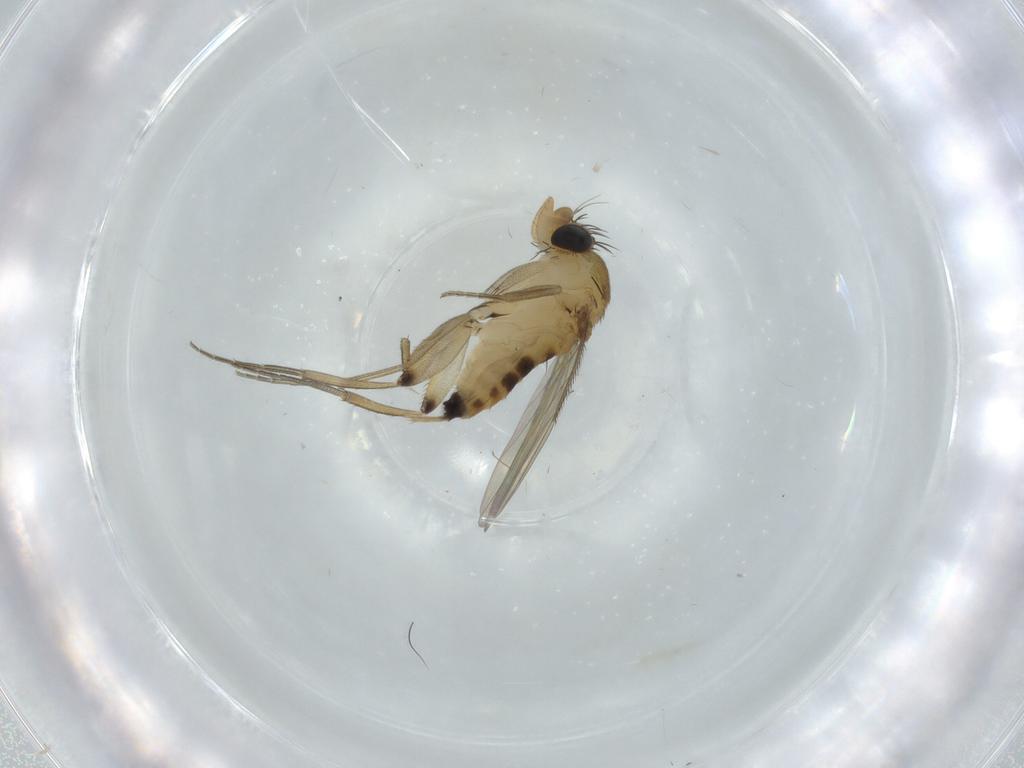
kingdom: Animalia
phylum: Arthropoda
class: Insecta
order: Diptera
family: Phoridae
